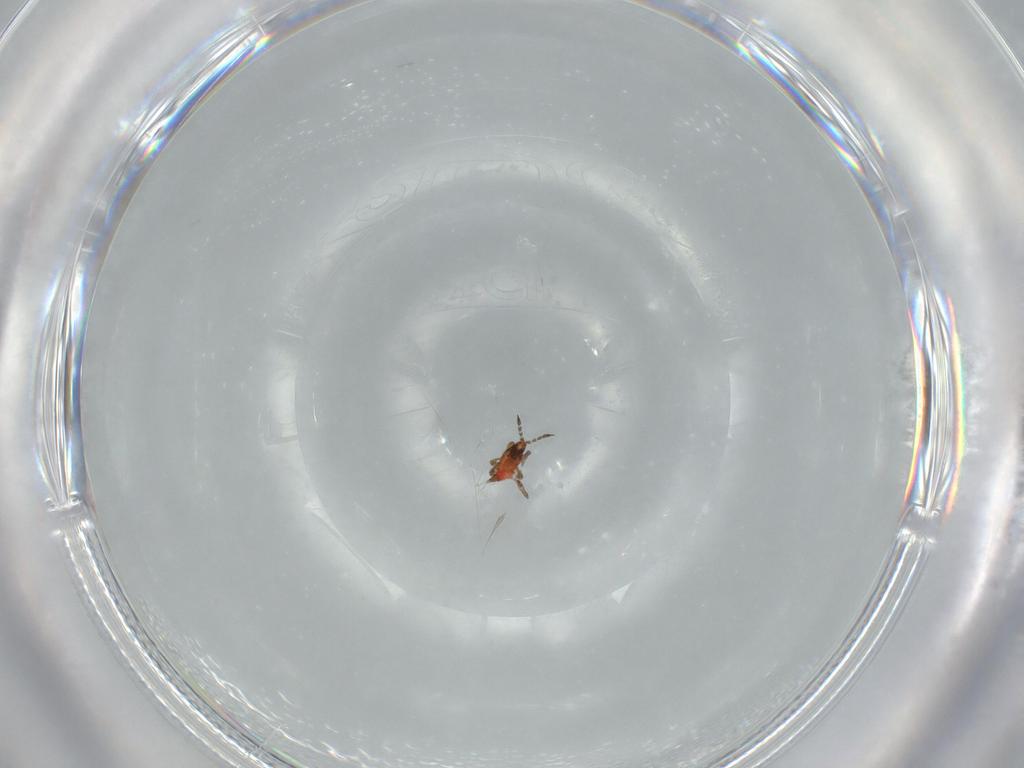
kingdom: Animalia
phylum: Arthropoda
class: Insecta
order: Thysanoptera
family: Phlaeothripidae
